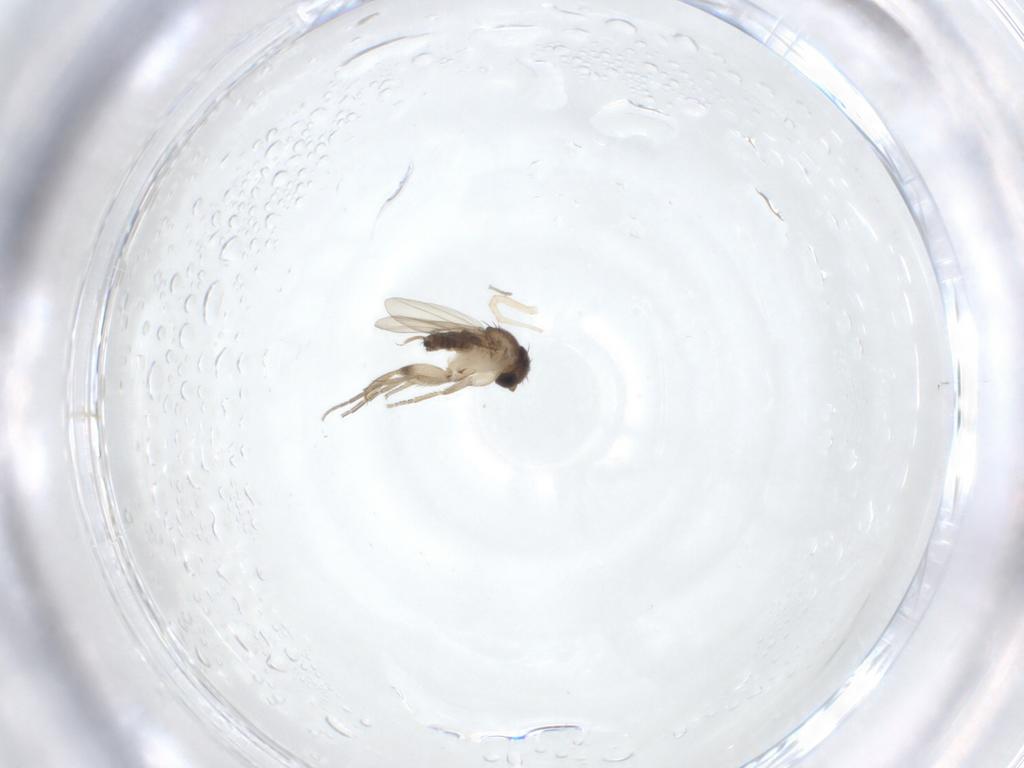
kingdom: Animalia
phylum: Arthropoda
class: Insecta
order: Diptera
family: Phoridae
